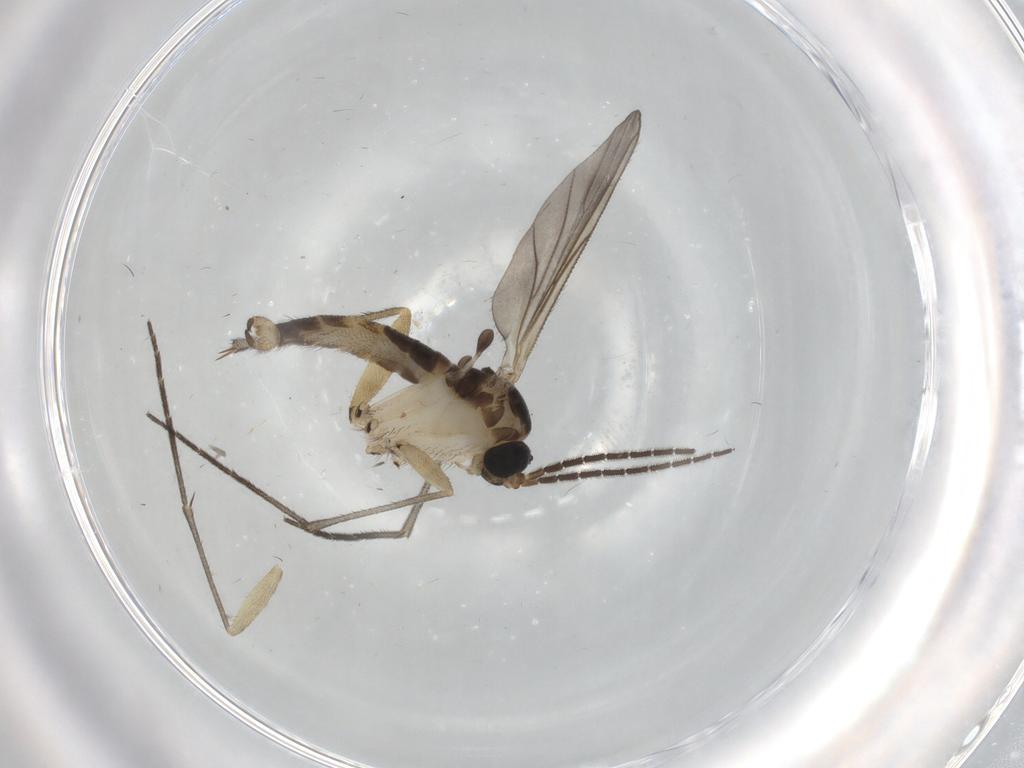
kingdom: Animalia
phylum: Arthropoda
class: Insecta
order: Diptera
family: Sciaridae
